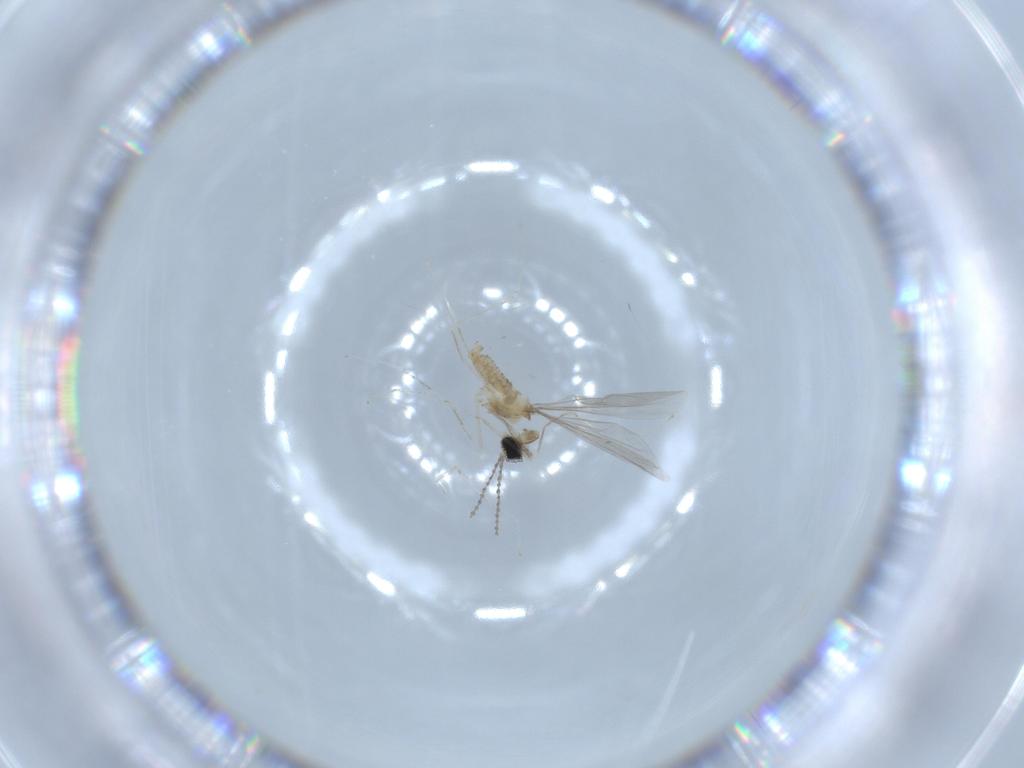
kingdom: Animalia
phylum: Arthropoda
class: Insecta
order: Diptera
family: Cecidomyiidae
